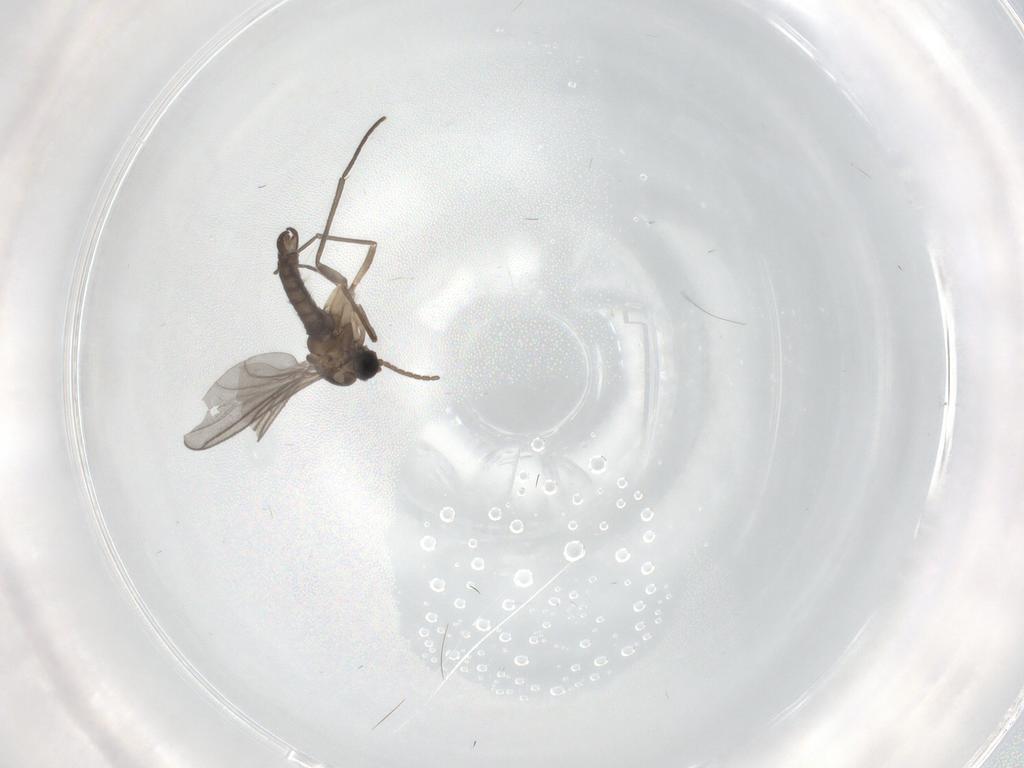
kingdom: Animalia
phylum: Arthropoda
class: Insecta
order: Diptera
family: Sciaridae
